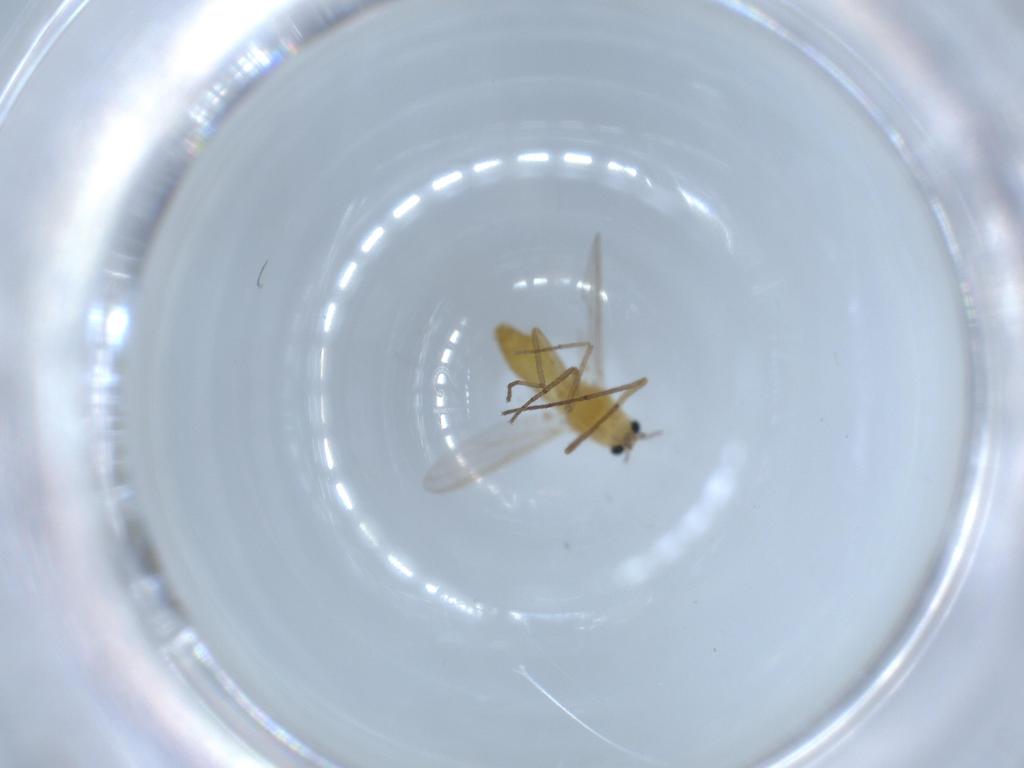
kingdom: Animalia
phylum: Arthropoda
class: Insecta
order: Diptera
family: Chironomidae
